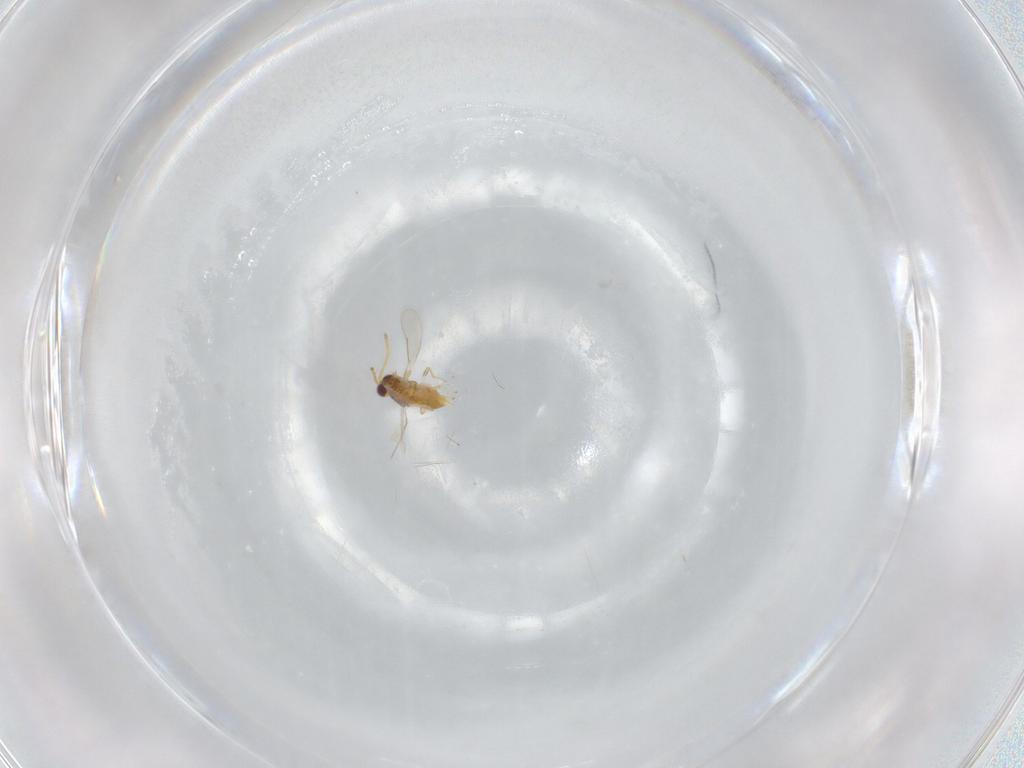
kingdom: Animalia
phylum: Arthropoda
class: Insecta
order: Hymenoptera
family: Aphelinidae
